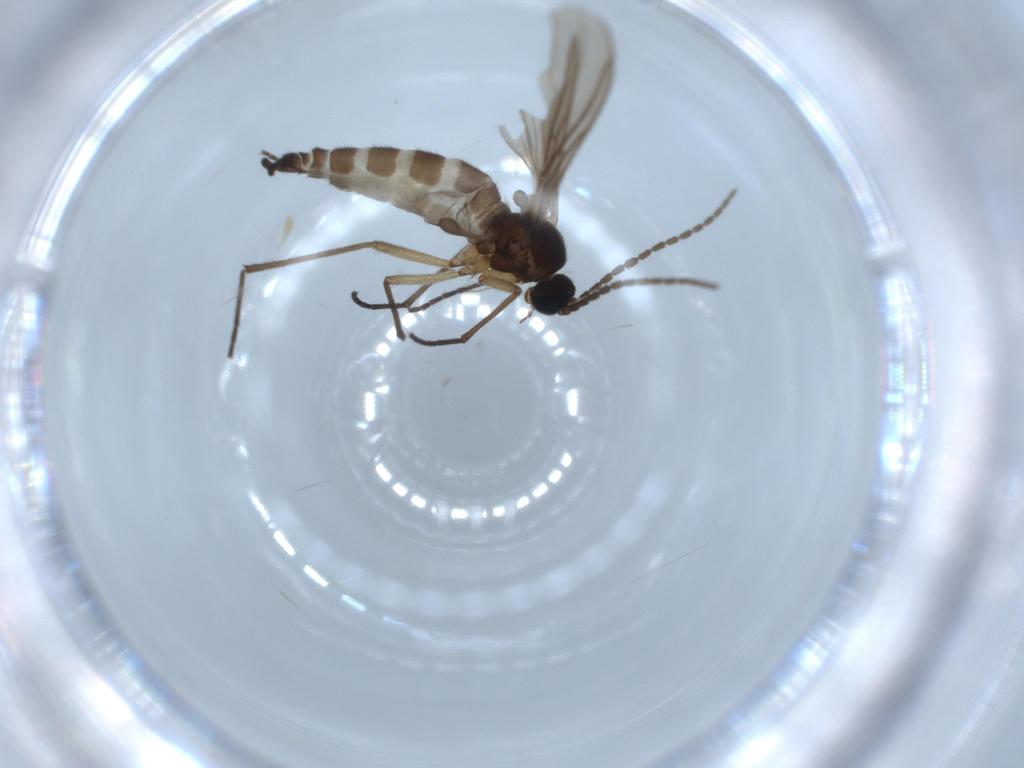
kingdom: Animalia
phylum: Arthropoda
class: Insecta
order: Diptera
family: Sciaridae
